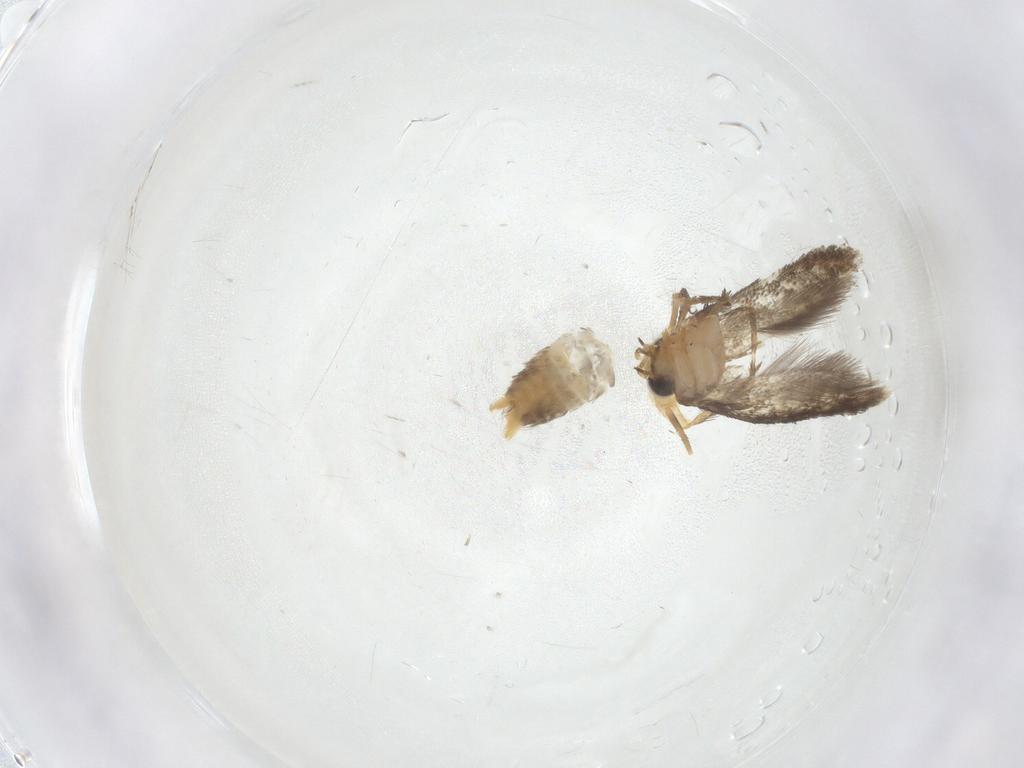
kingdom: Animalia
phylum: Arthropoda
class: Insecta
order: Lepidoptera
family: Nepticulidae
